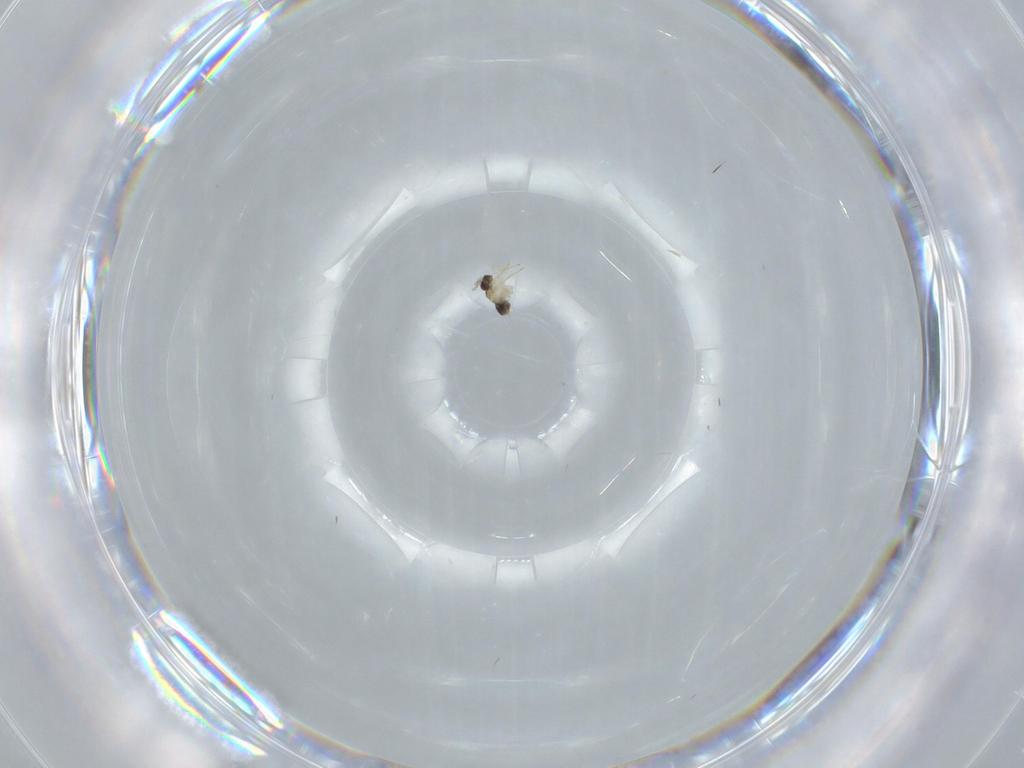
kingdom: Animalia
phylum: Arthropoda
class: Insecta
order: Hymenoptera
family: Mymaridae
